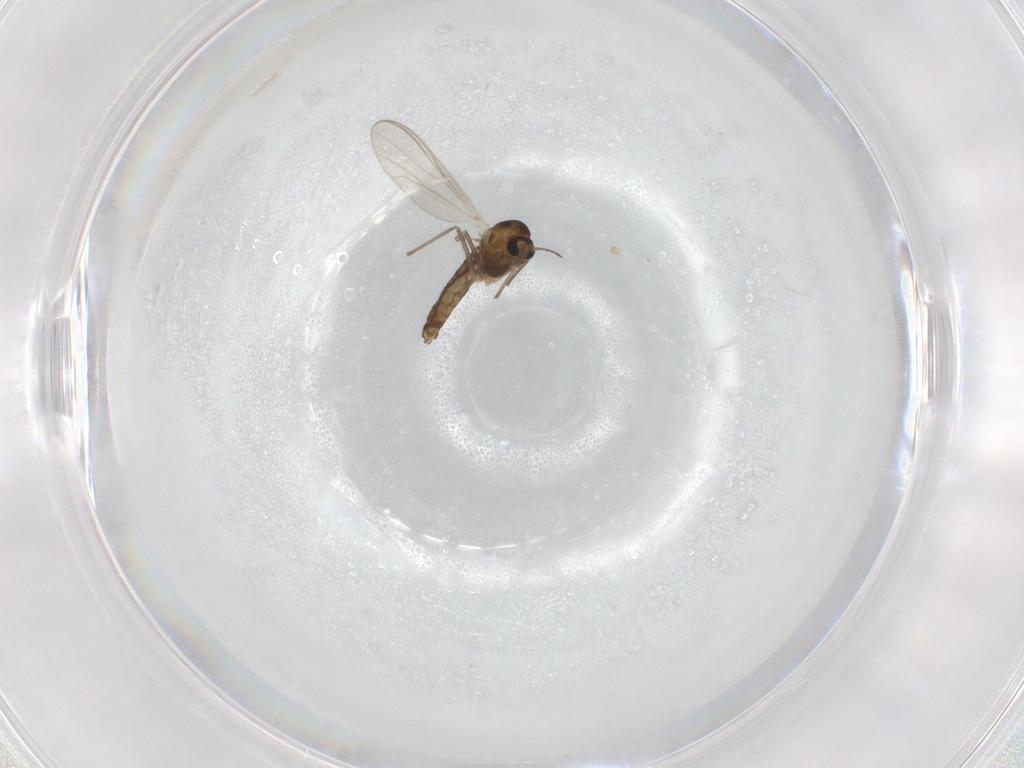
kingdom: Animalia
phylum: Arthropoda
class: Insecta
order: Diptera
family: Chironomidae
